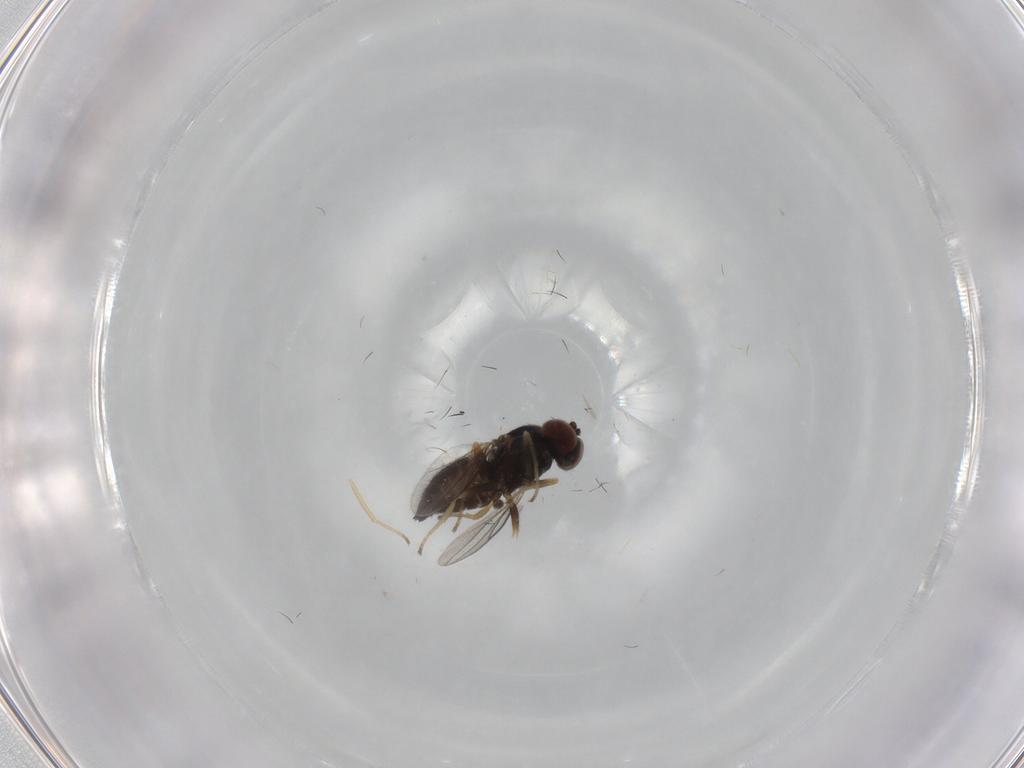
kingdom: Animalia
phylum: Arthropoda
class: Insecta
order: Diptera
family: Dolichopodidae
